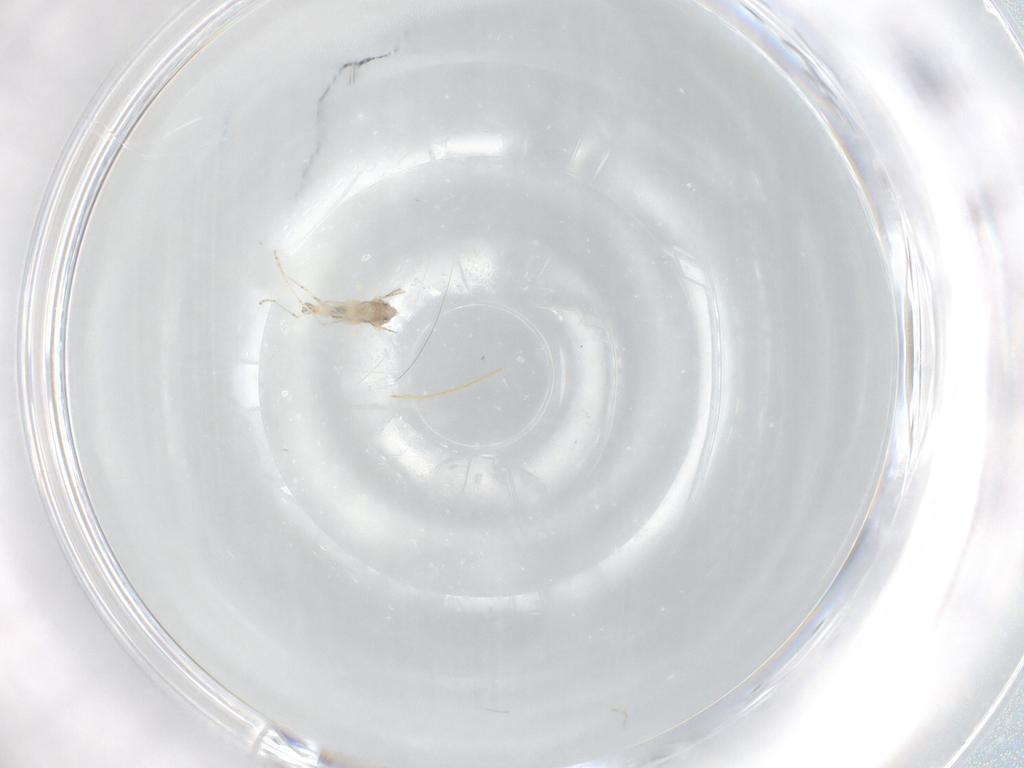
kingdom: Animalia
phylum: Arthropoda
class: Insecta
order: Diptera
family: Cecidomyiidae
